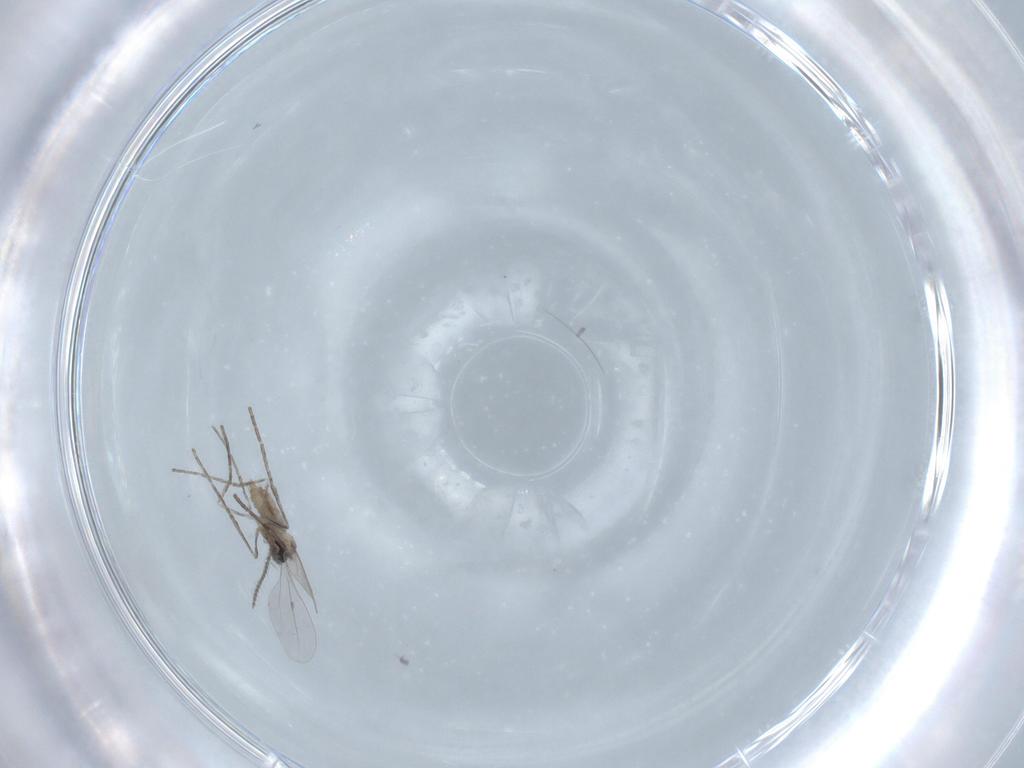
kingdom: Animalia
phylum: Arthropoda
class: Insecta
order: Diptera
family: Cecidomyiidae
